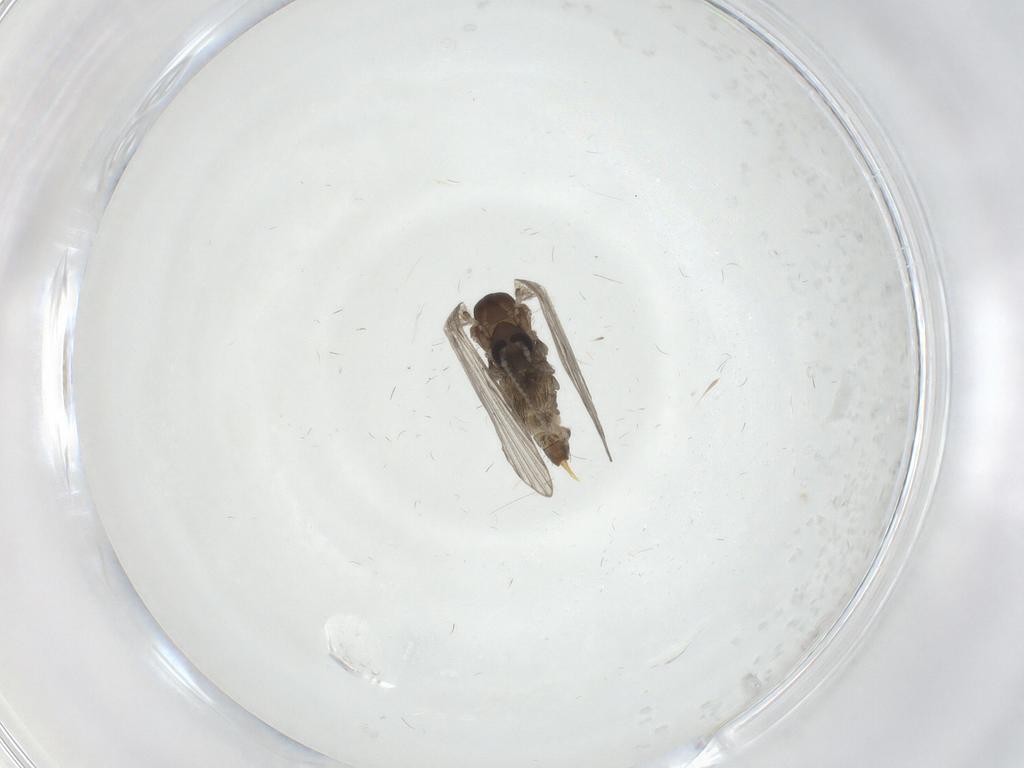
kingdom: Animalia
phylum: Arthropoda
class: Insecta
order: Diptera
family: Psychodidae
